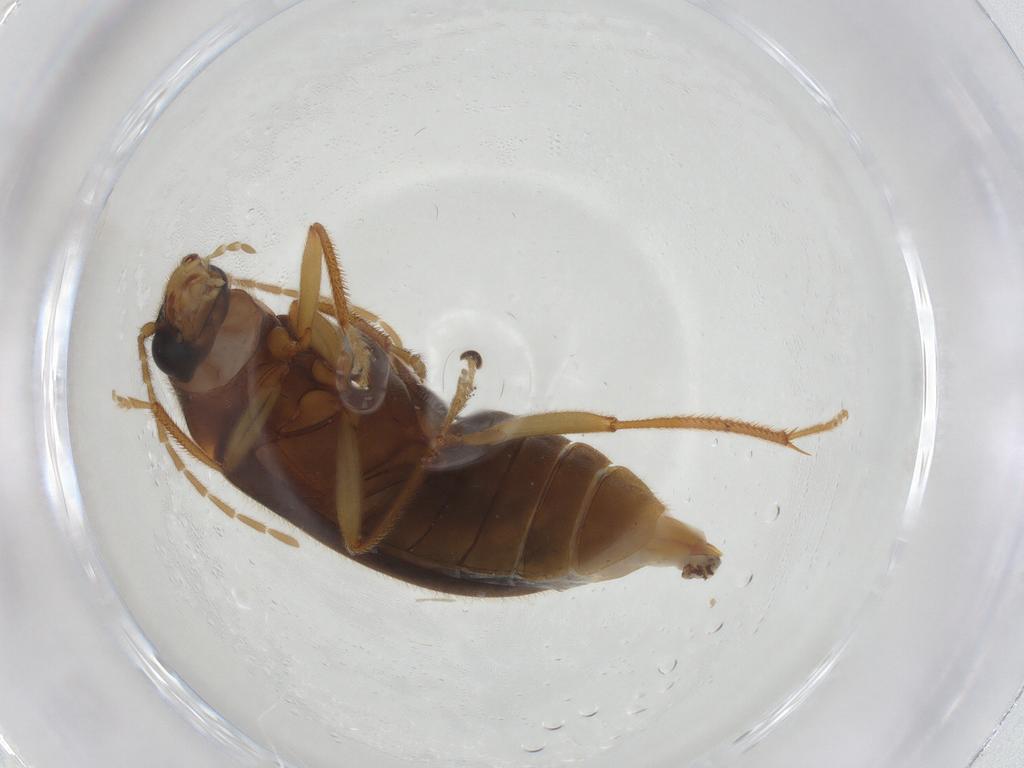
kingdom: Animalia
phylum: Arthropoda
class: Insecta
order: Coleoptera
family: Ptilodactylidae
